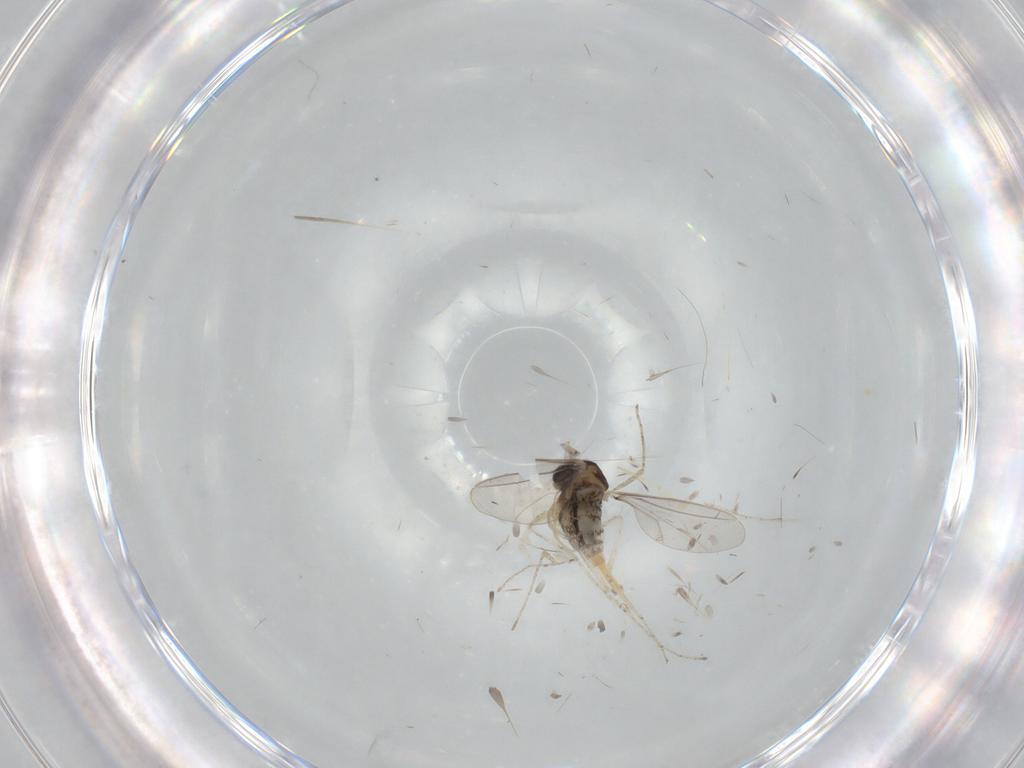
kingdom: Animalia
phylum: Arthropoda
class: Insecta
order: Diptera
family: Cecidomyiidae
